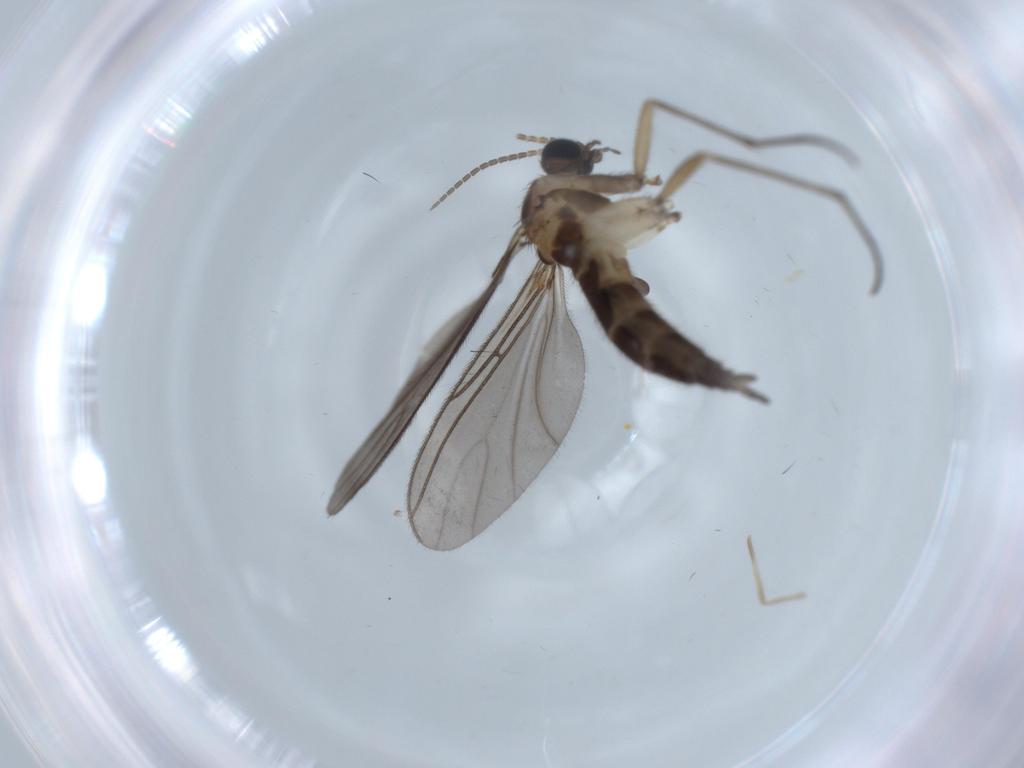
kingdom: Animalia
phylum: Arthropoda
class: Insecta
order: Diptera
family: Sciaridae
